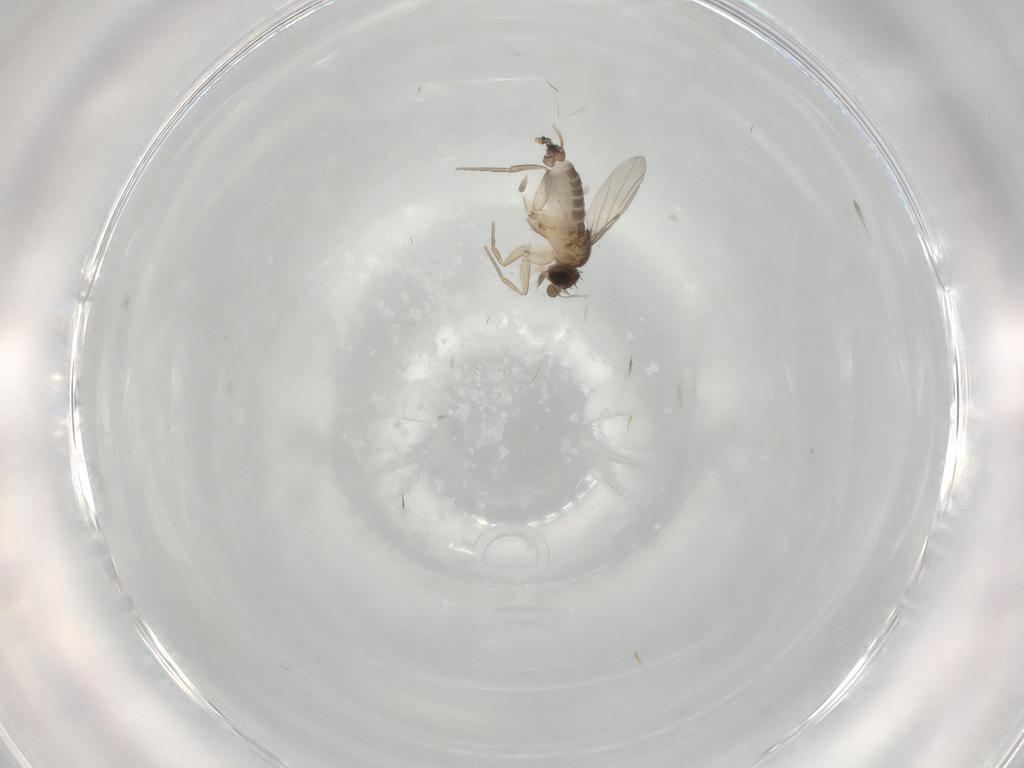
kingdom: Animalia
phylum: Arthropoda
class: Insecta
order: Diptera
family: Phoridae
